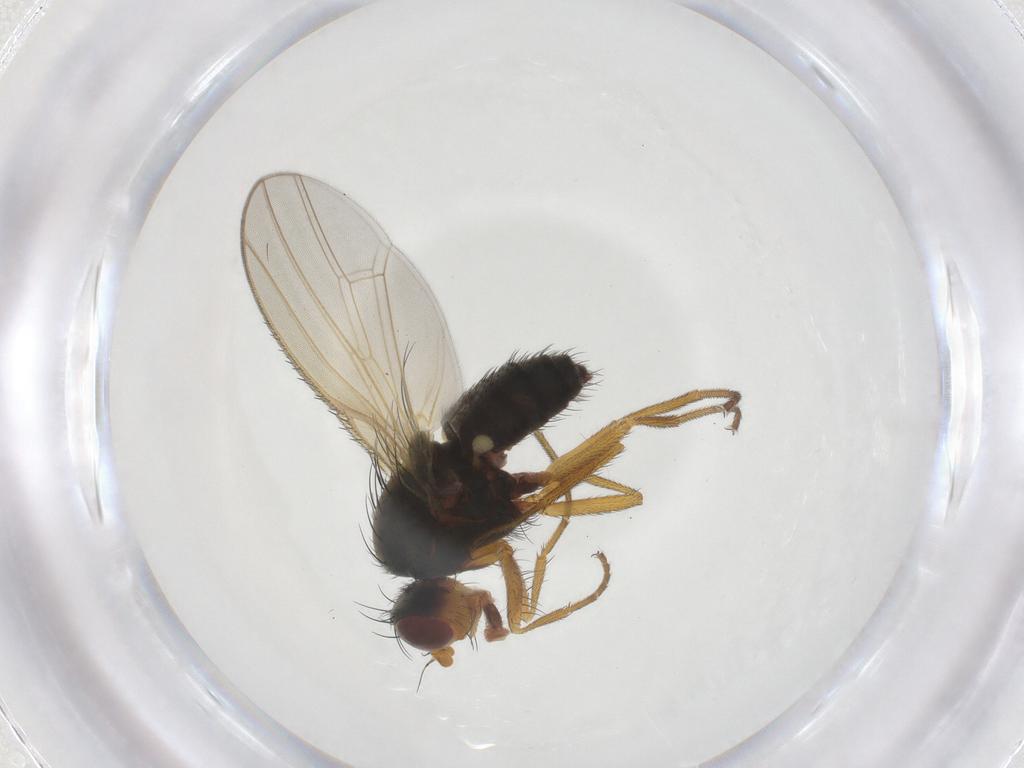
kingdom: Animalia
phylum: Arthropoda
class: Insecta
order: Diptera
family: Heleomyzidae
